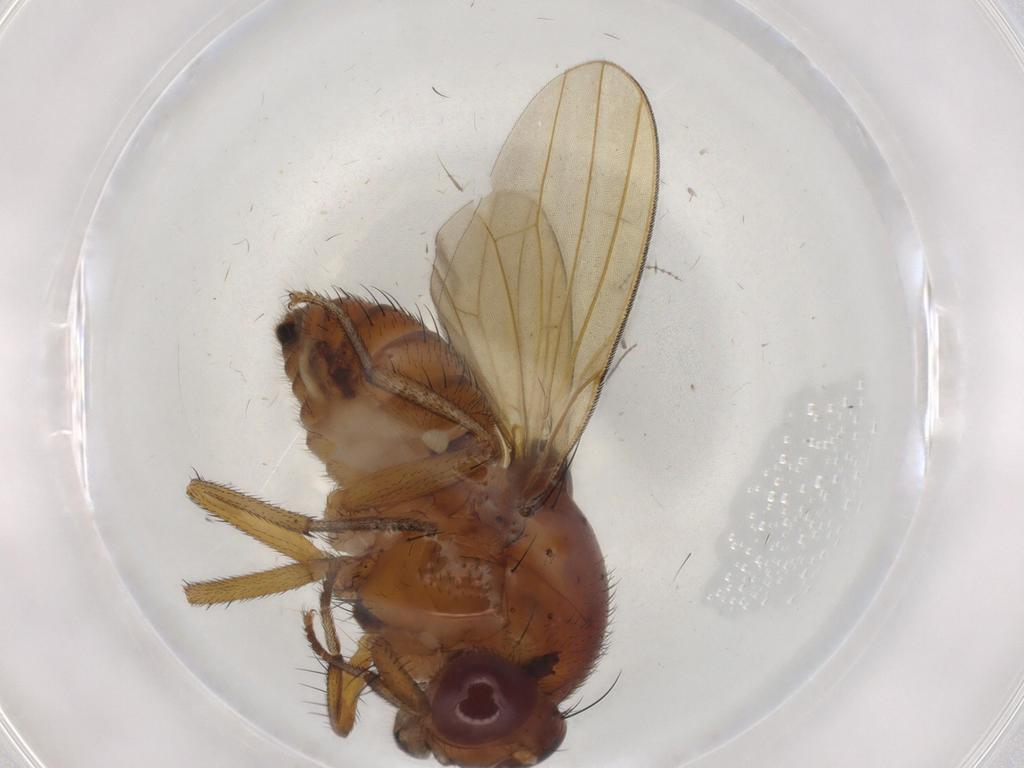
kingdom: Animalia
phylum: Arthropoda
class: Insecta
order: Diptera
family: Psychodidae
